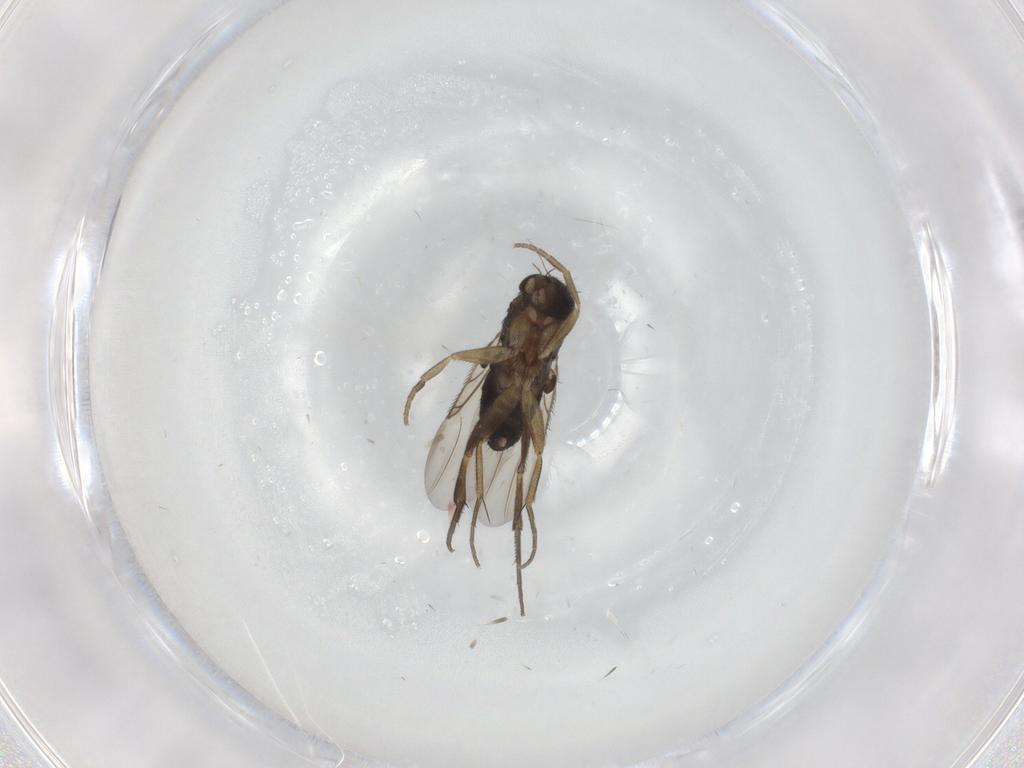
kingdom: Animalia
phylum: Arthropoda
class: Insecta
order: Diptera
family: Phoridae
